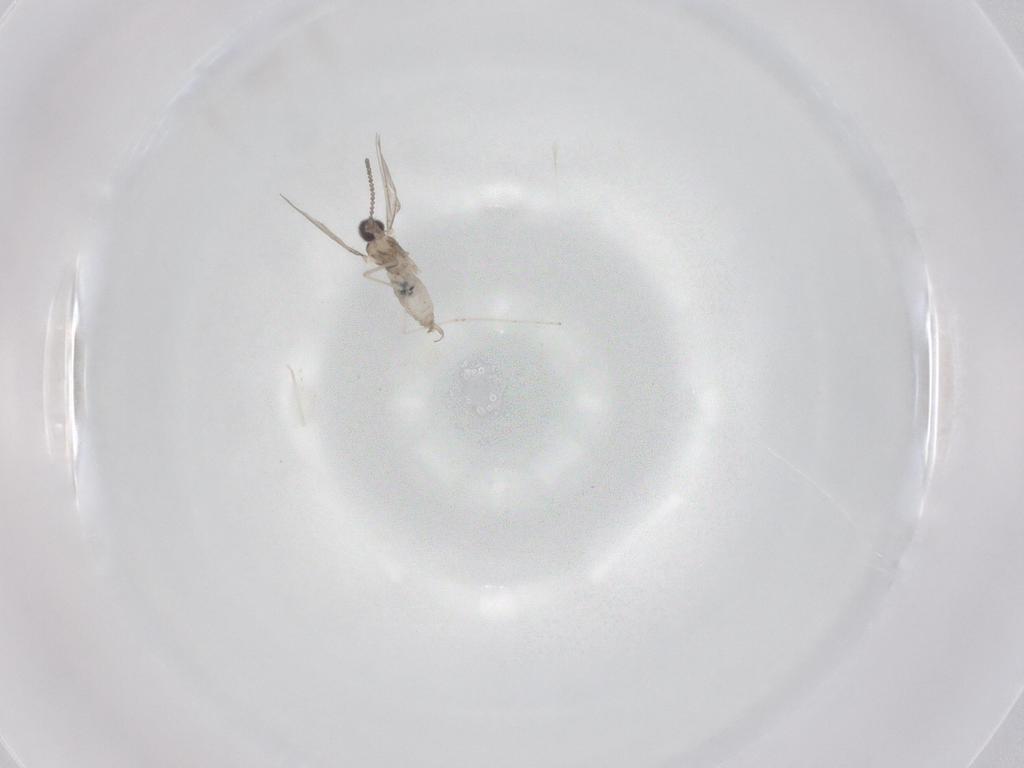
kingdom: Animalia
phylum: Arthropoda
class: Insecta
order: Diptera
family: Cecidomyiidae
